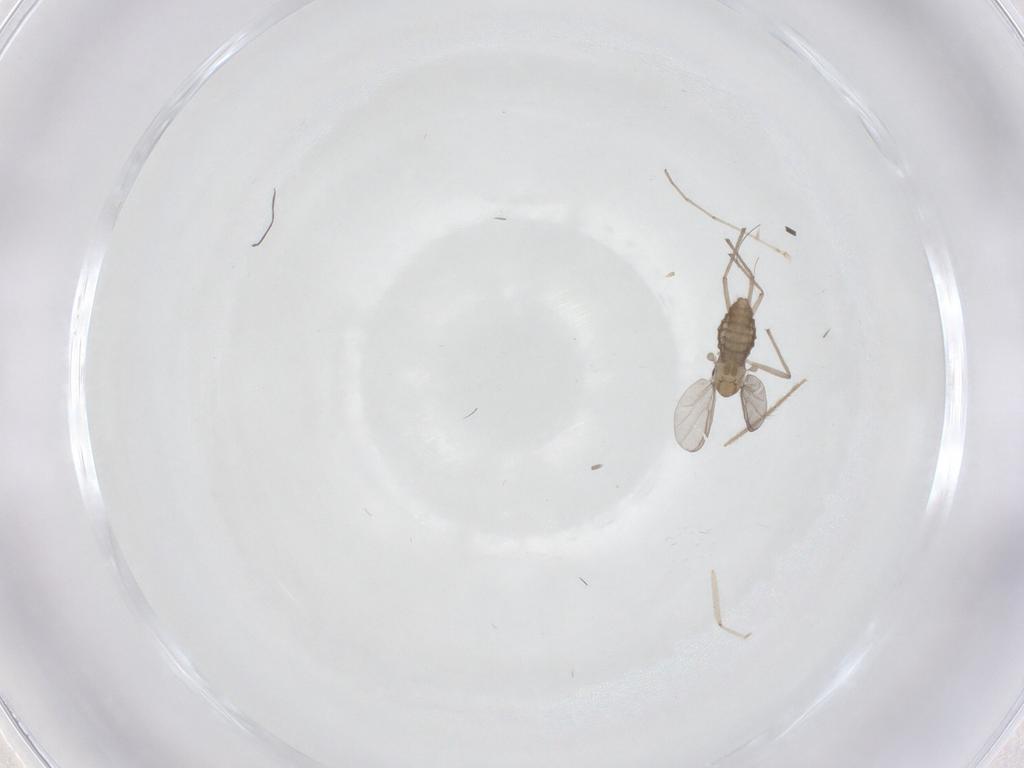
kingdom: Animalia
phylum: Arthropoda
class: Insecta
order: Diptera
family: Chironomidae
